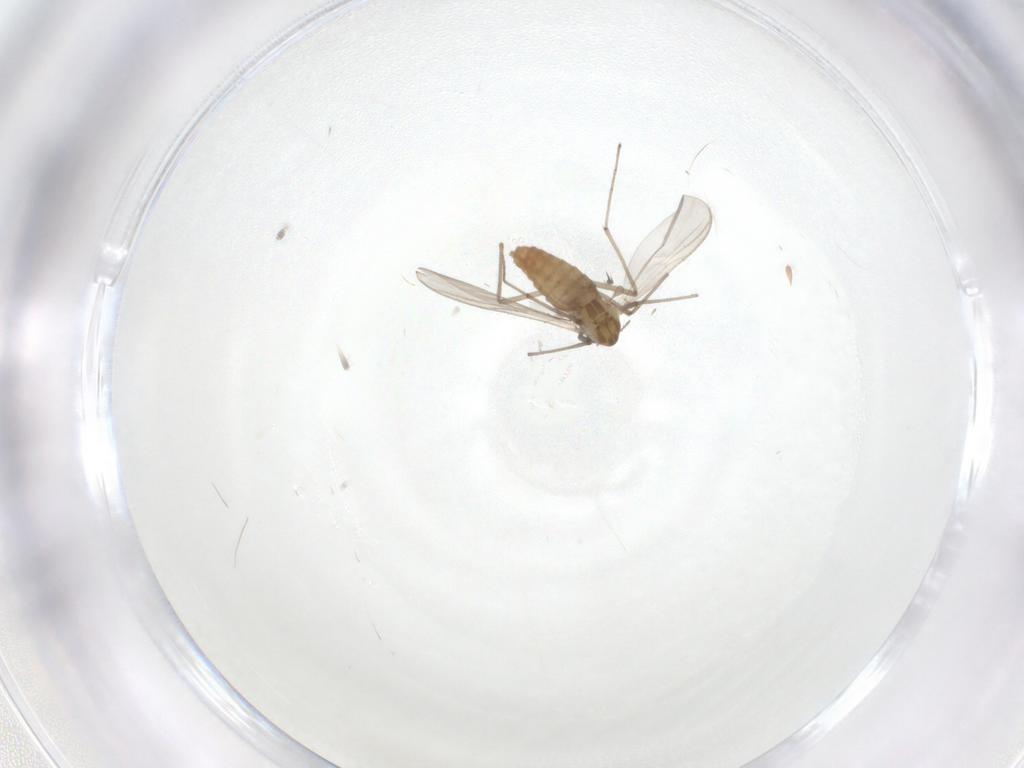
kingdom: Animalia
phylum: Arthropoda
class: Insecta
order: Diptera
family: Chironomidae
